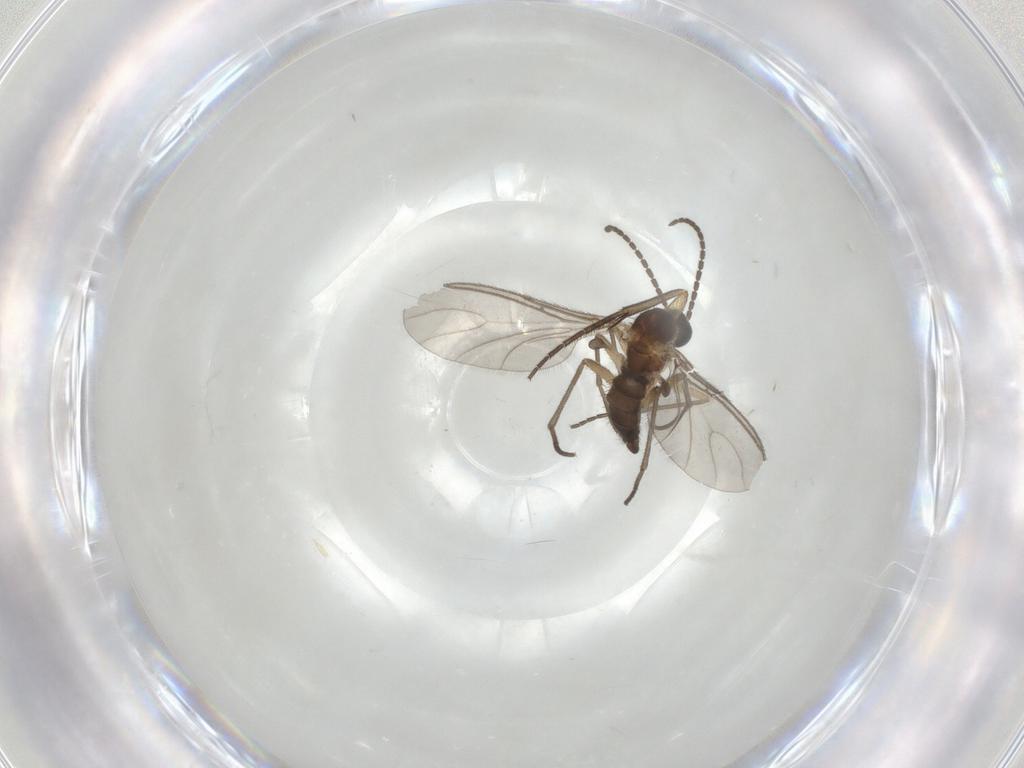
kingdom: Animalia
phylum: Arthropoda
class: Insecta
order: Diptera
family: Sciaridae
